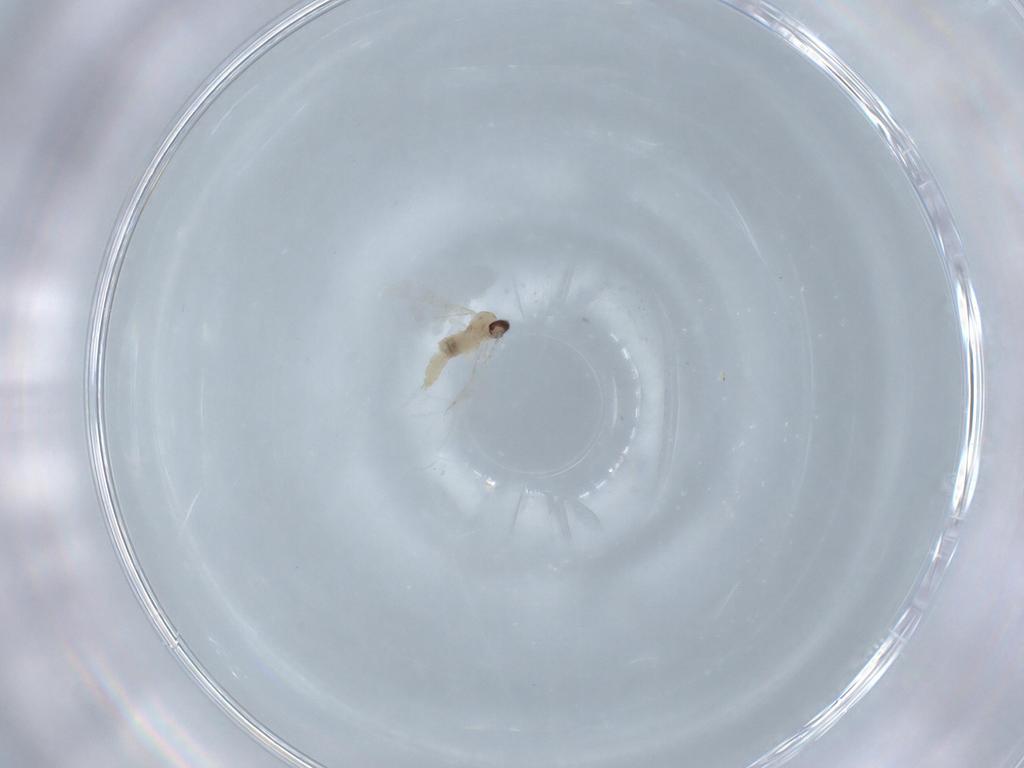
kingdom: Animalia
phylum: Arthropoda
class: Insecta
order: Diptera
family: Cecidomyiidae
